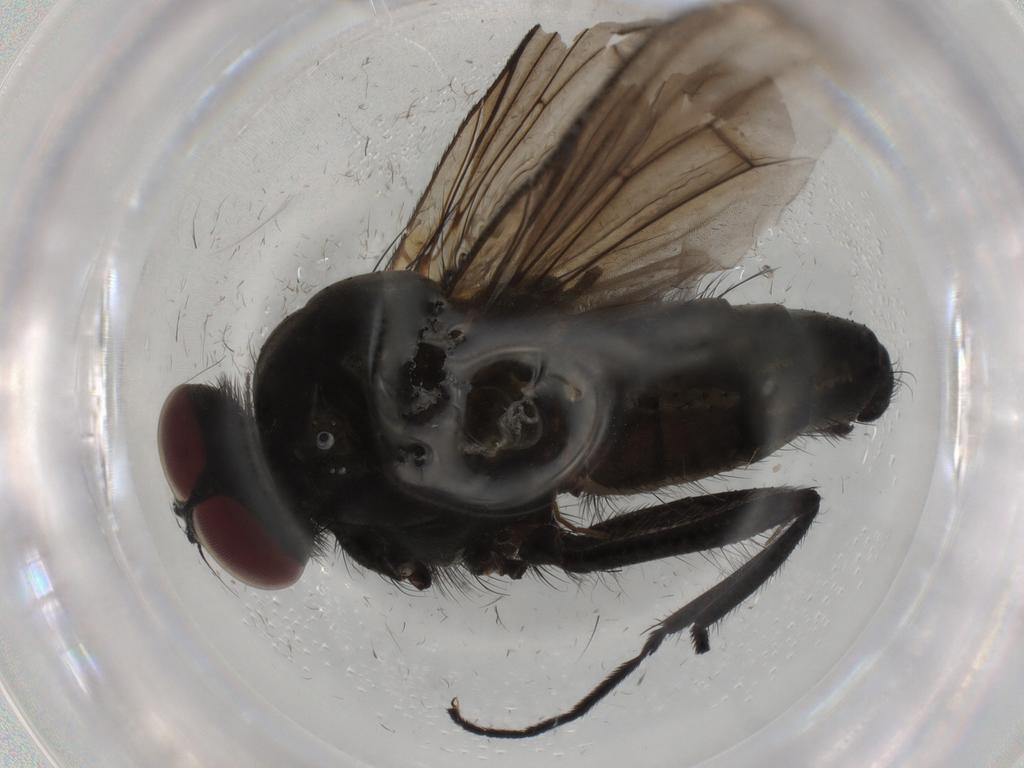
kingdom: Animalia
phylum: Arthropoda
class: Insecta
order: Diptera
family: Muscidae
